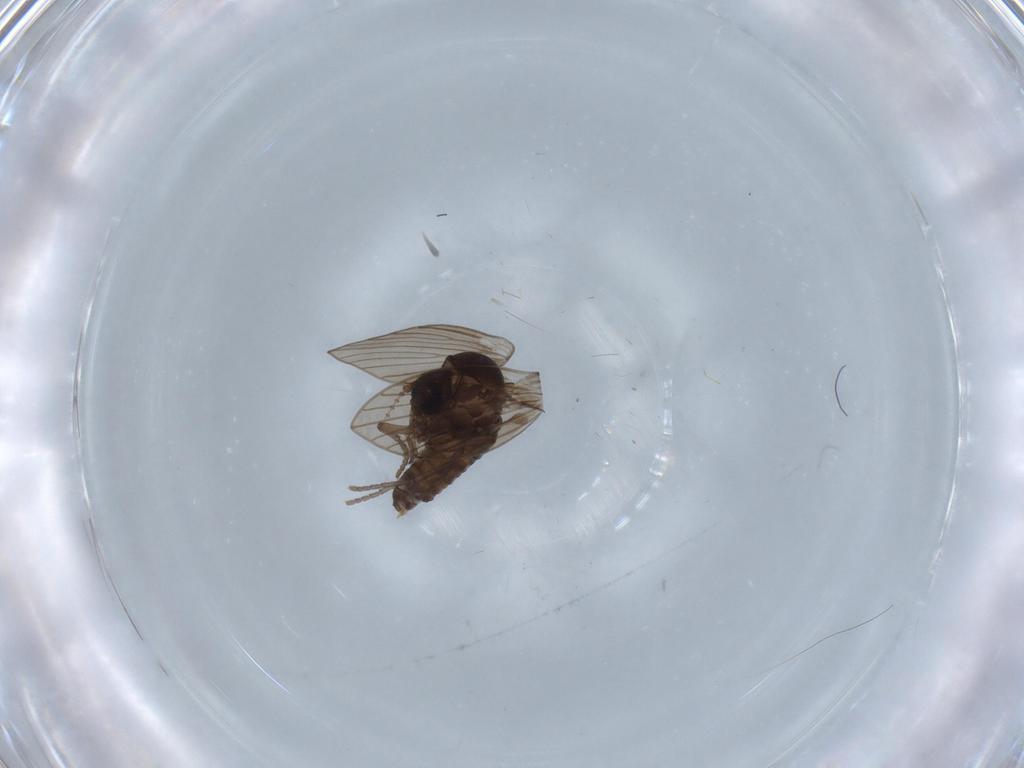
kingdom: Animalia
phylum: Arthropoda
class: Insecta
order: Diptera
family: Psychodidae
